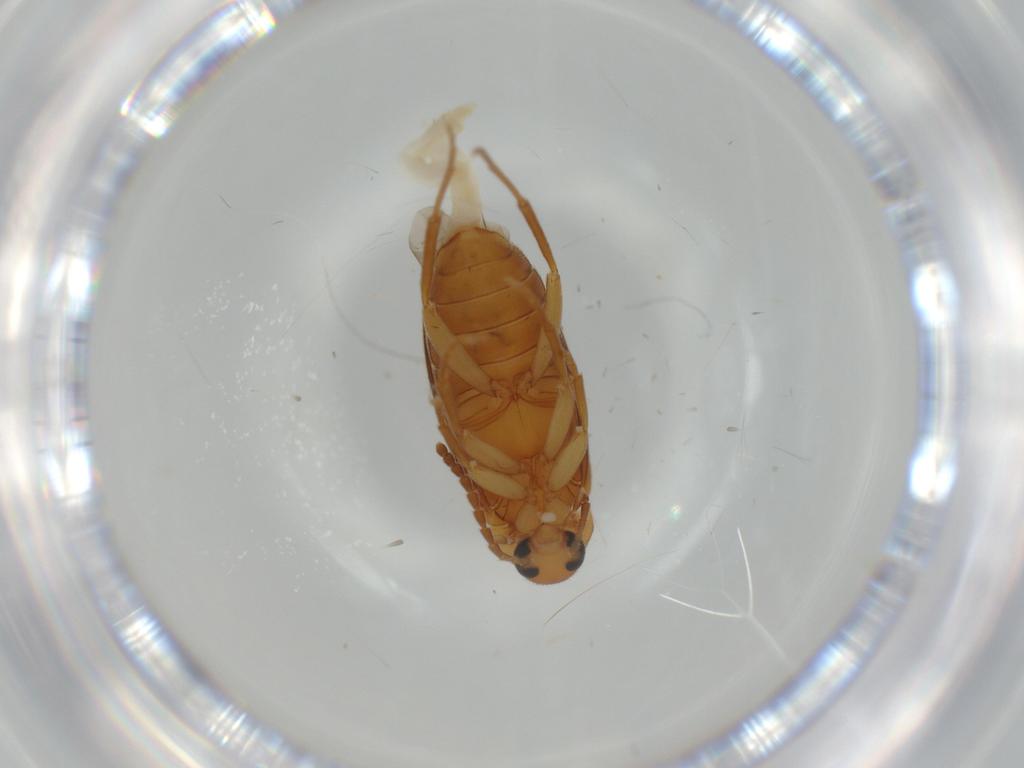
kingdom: Animalia
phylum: Arthropoda
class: Insecta
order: Coleoptera
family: Staphylinidae
